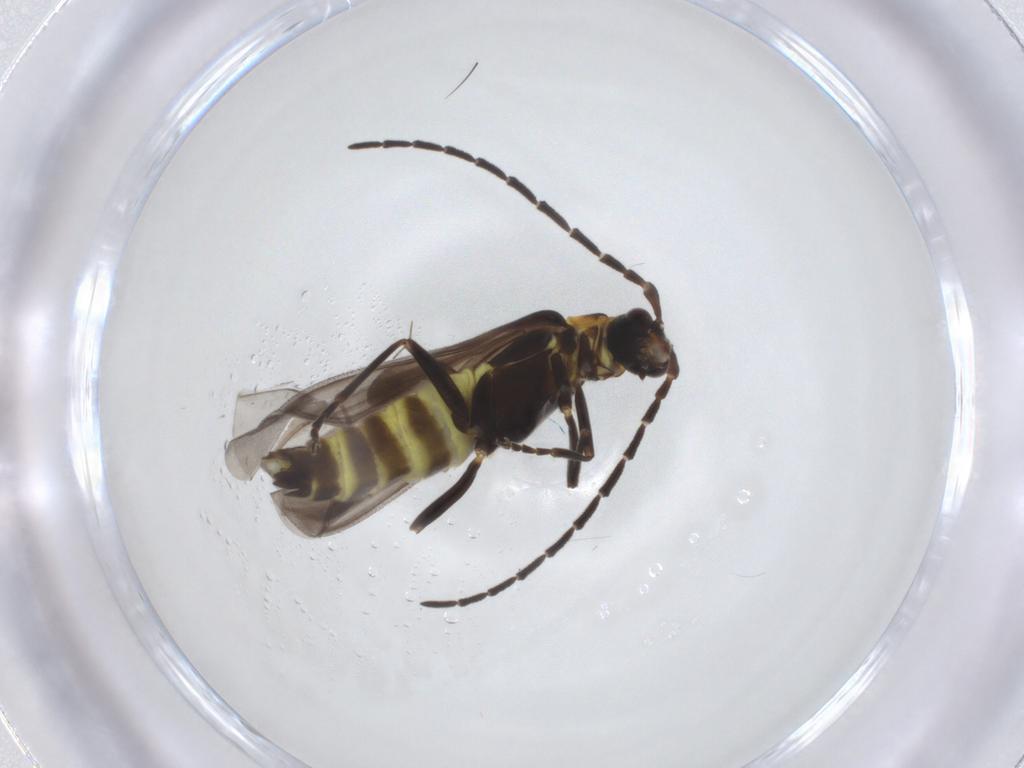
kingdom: Animalia
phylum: Arthropoda
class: Insecta
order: Coleoptera
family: Cantharidae
